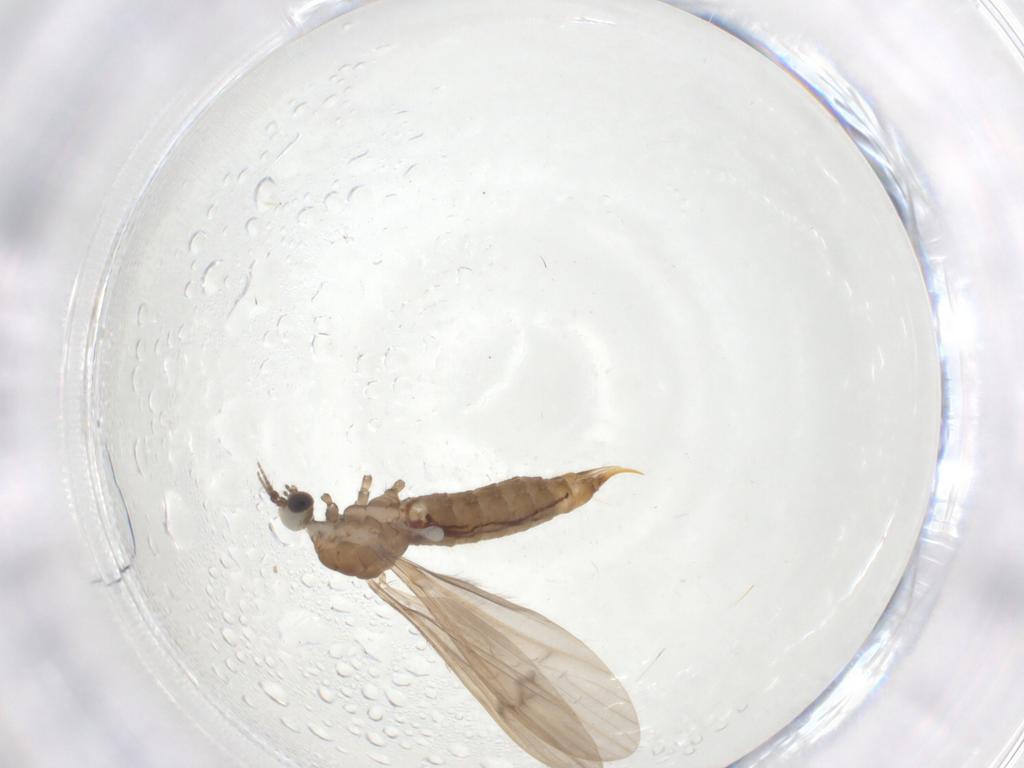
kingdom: Animalia
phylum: Arthropoda
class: Insecta
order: Diptera
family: Limoniidae
